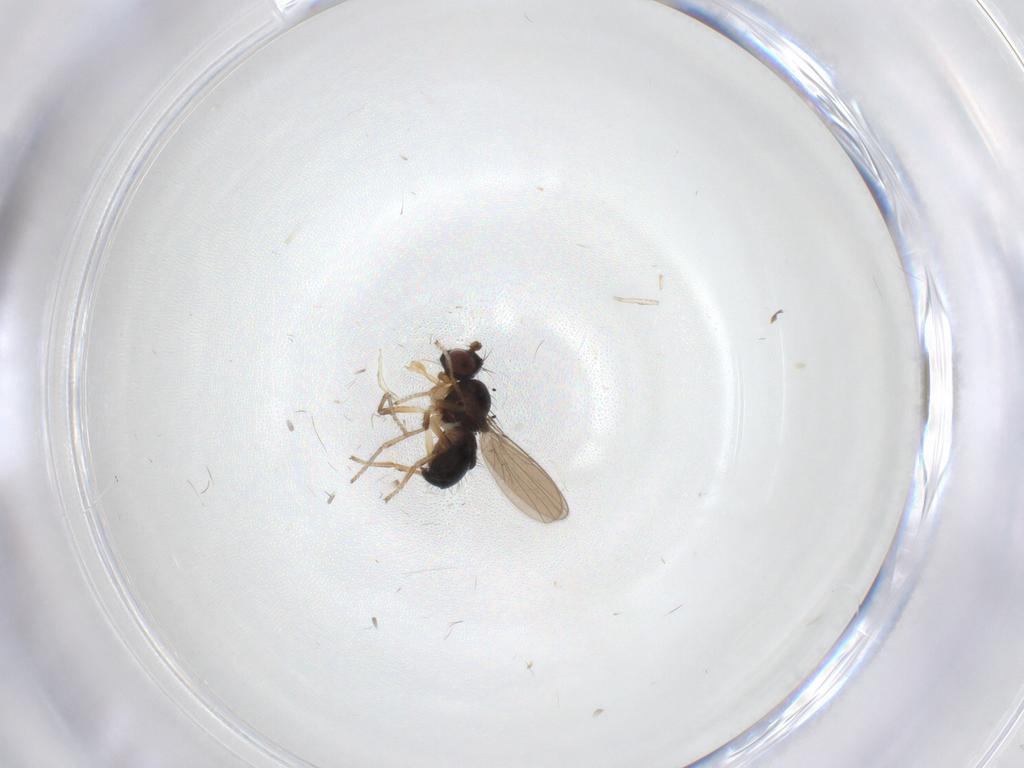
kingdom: Animalia
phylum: Arthropoda
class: Insecta
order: Diptera
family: Ephydridae
